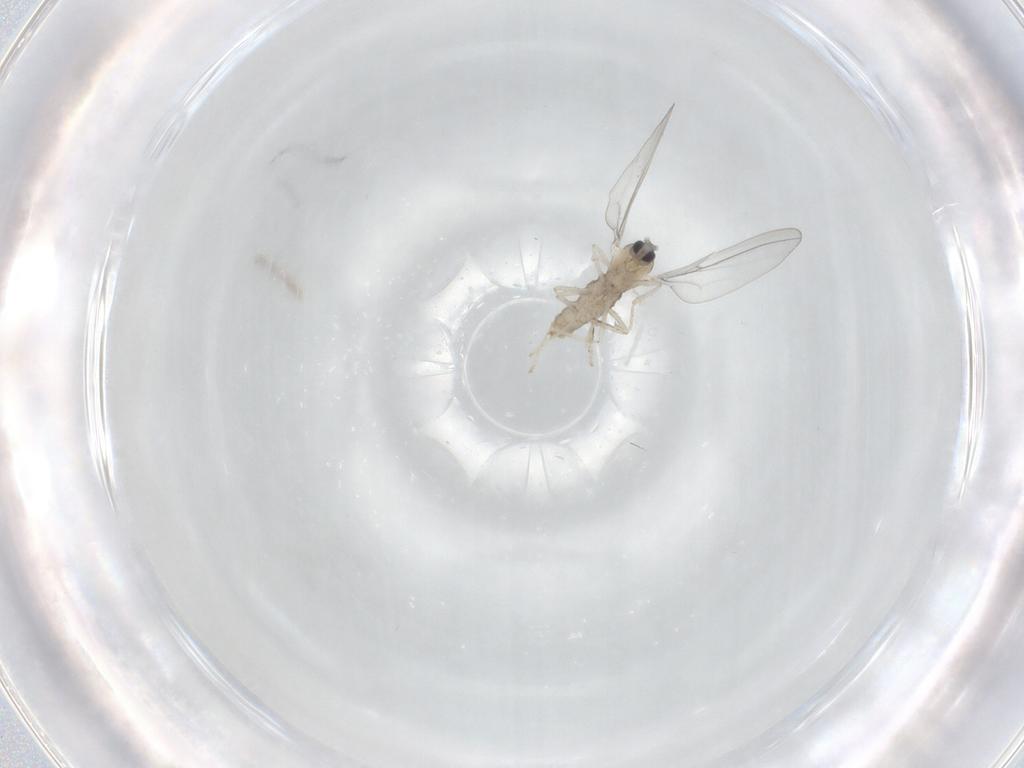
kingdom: Animalia
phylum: Arthropoda
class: Insecta
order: Diptera
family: Cecidomyiidae
